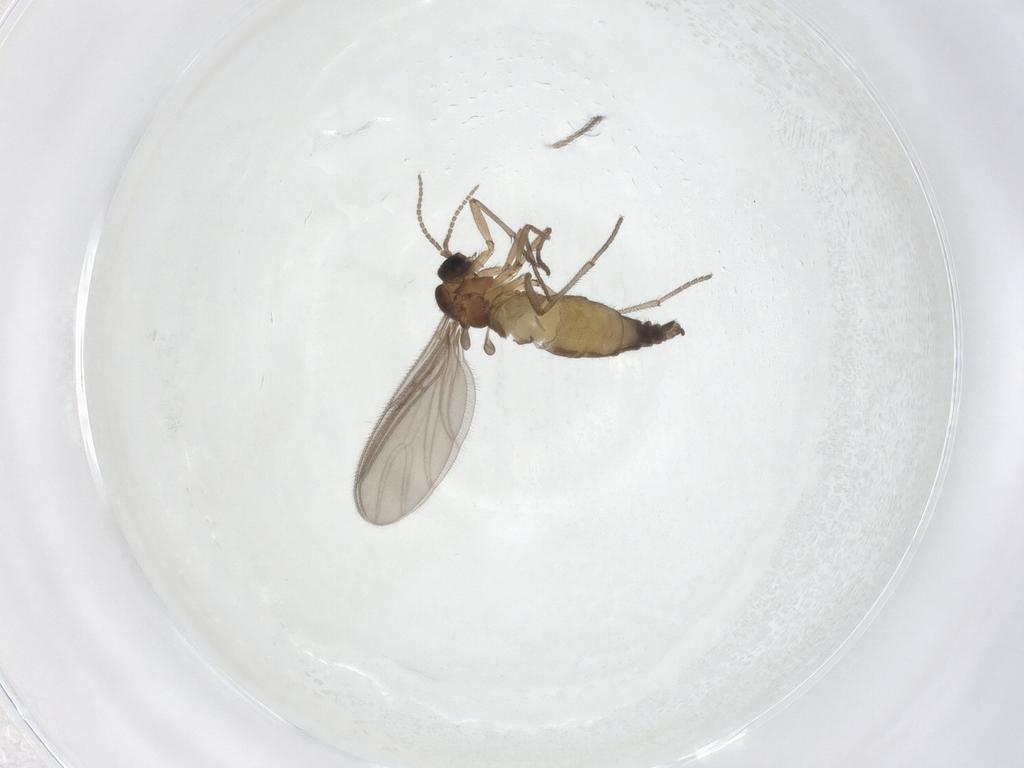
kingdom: Animalia
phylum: Arthropoda
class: Insecta
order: Diptera
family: Sciaridae
